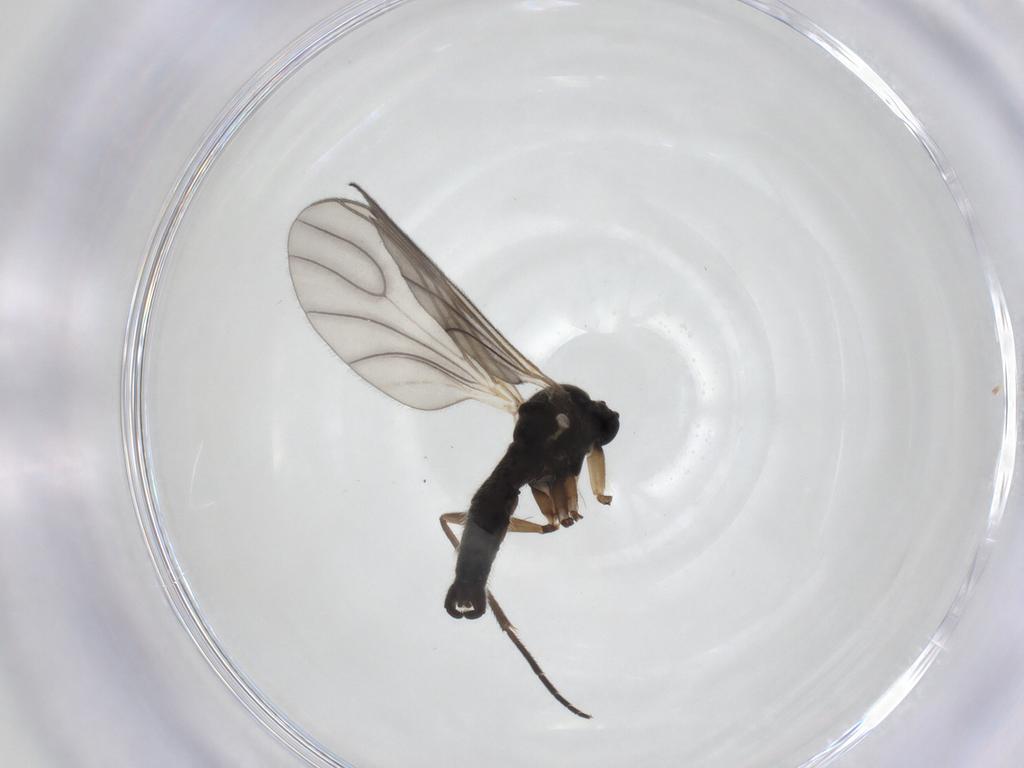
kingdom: Animalia
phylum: Arthropoda
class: Insecta
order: Diptera
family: Sciaridae
